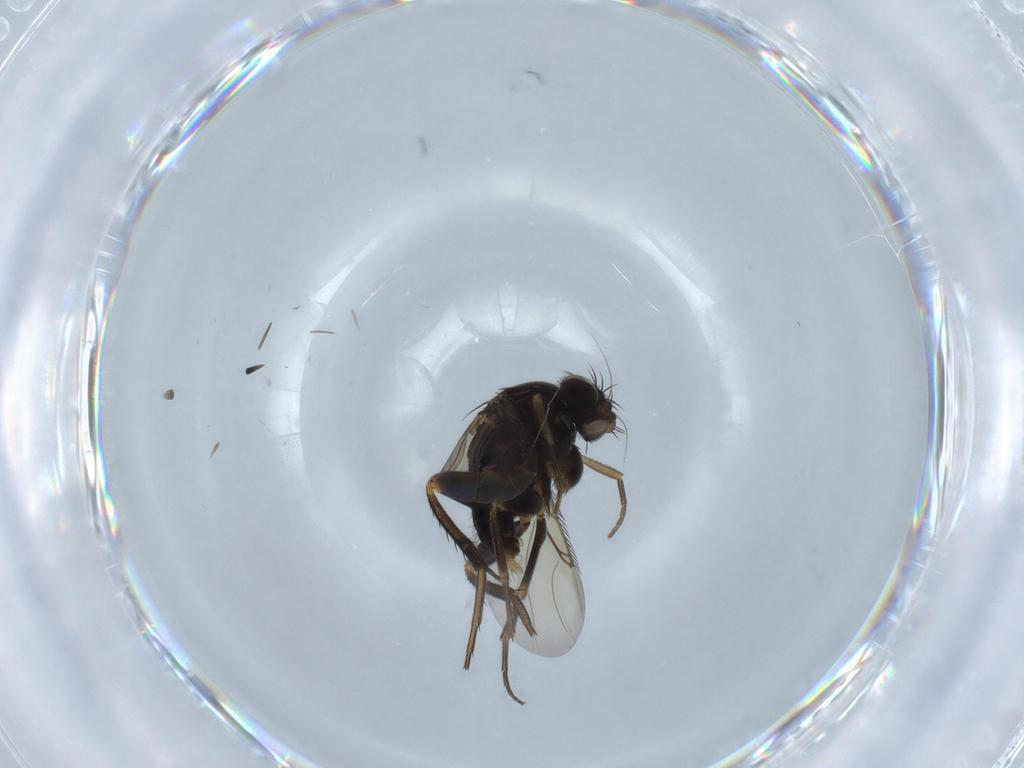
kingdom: Animalia
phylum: Arthropoda
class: Insecta
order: Diptera
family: Phoridae
